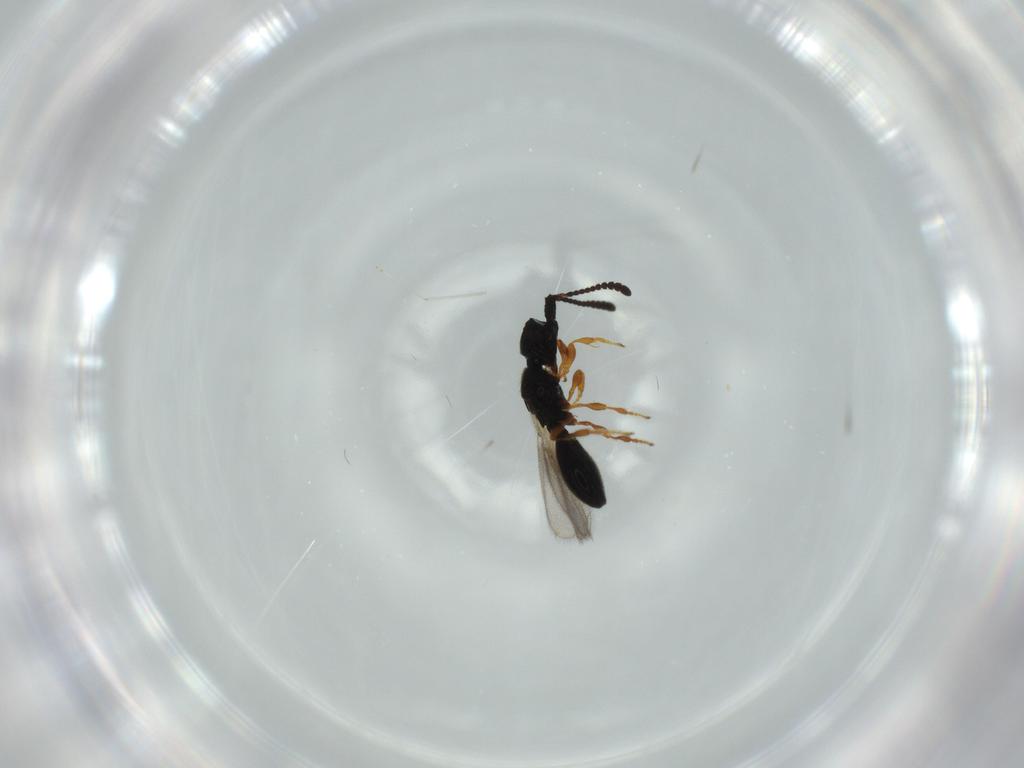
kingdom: Animalia
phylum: Arthropoda
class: Insecta
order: Hymenoptera
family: Diapriidae
